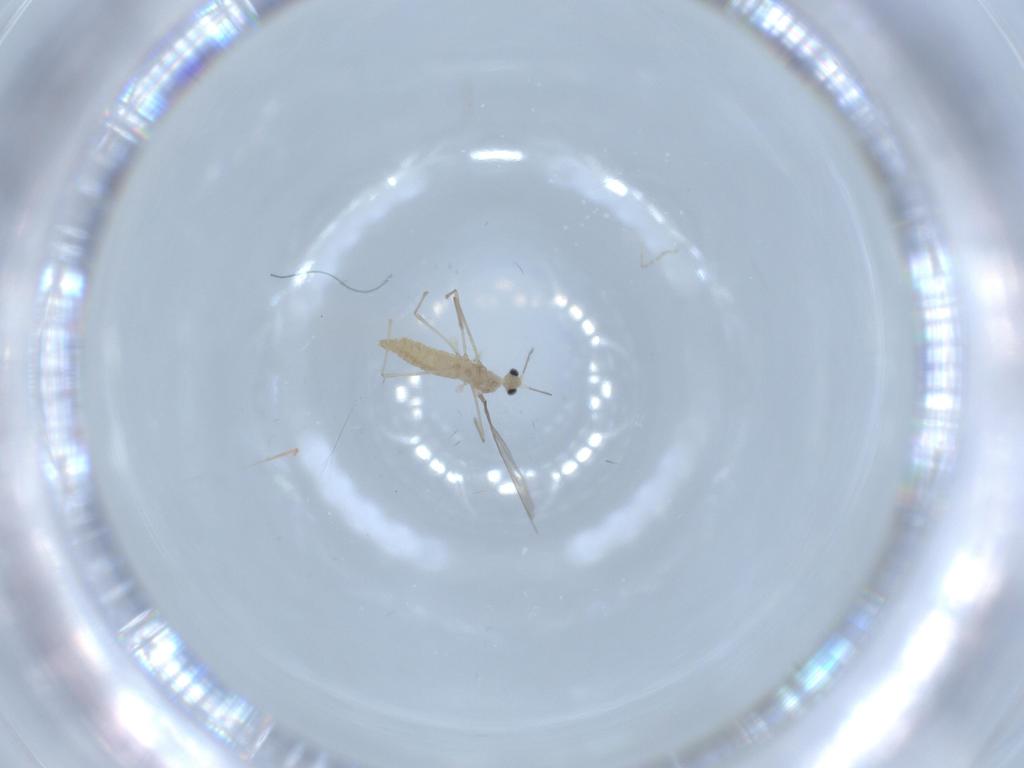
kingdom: Animalia
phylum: Arthropoda
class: Insecta
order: Diptera
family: Cecidomyiidae
